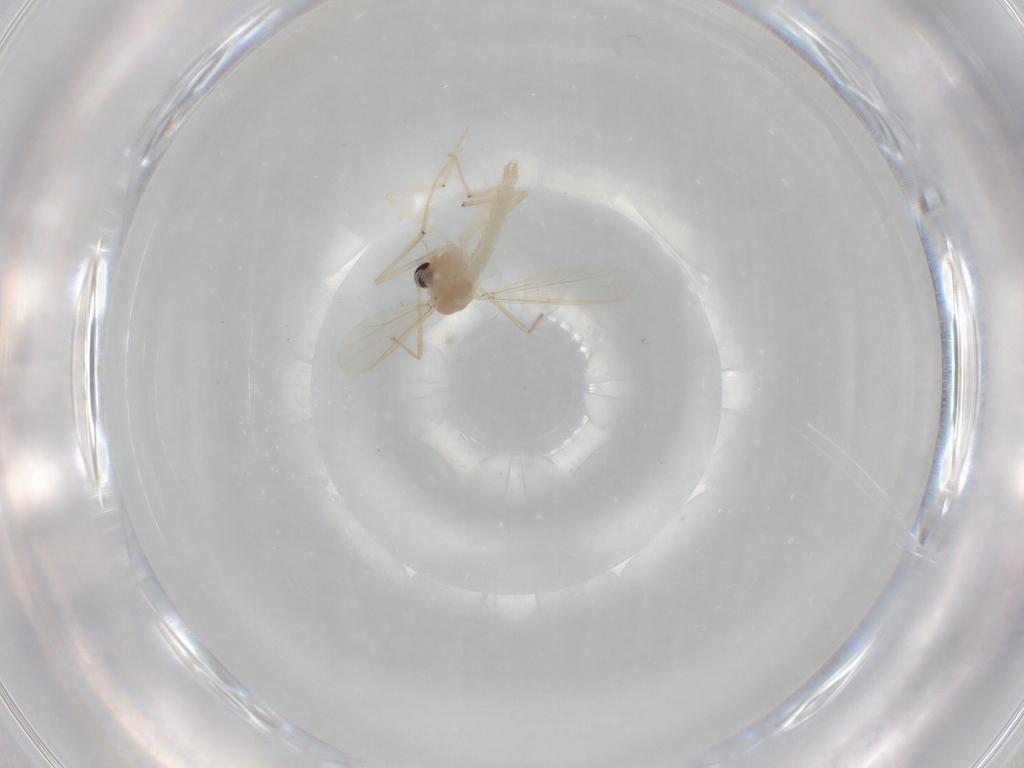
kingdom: Animalia
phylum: Arthropoda
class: Insecta
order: Diptera
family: Chironomidae
